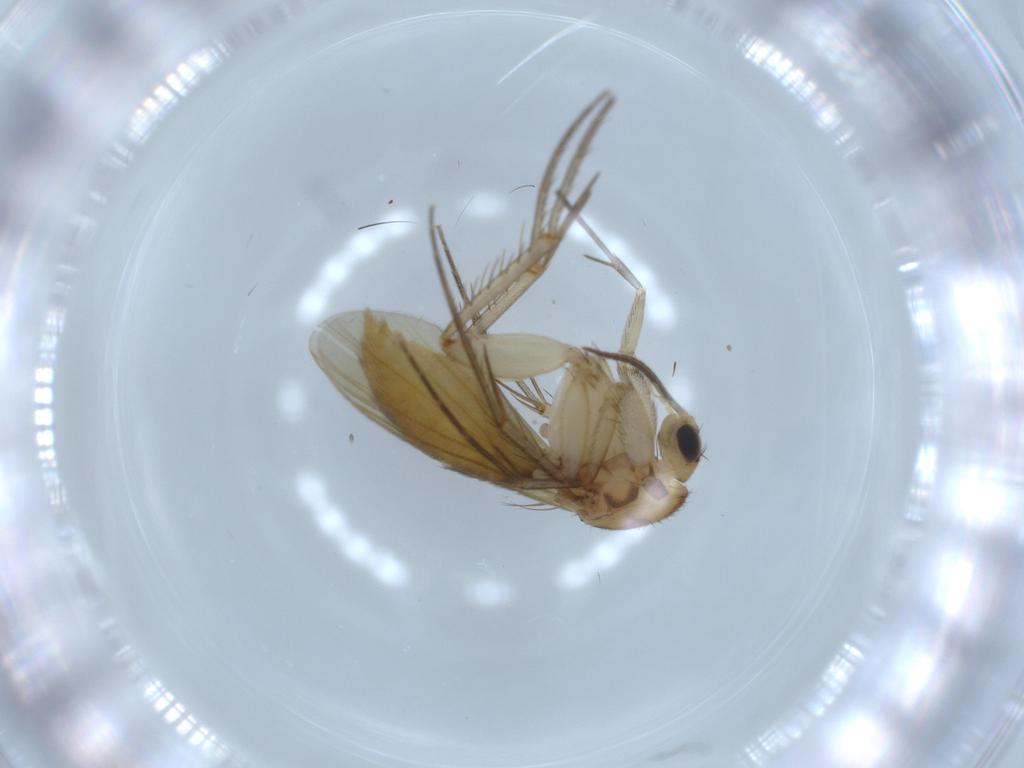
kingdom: Animalia
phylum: Arthropoda
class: Insecta
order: Diptera
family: Mycetophilidae
